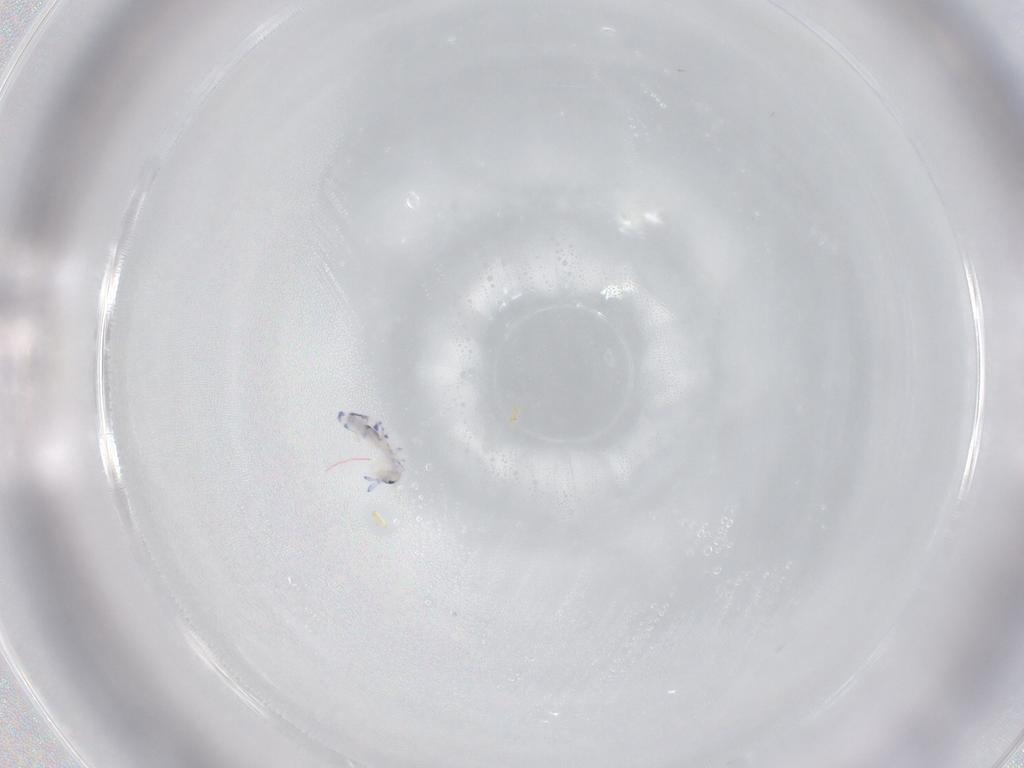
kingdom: Animalia
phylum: Arthropoda
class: Collembola
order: Entomobryomorpha
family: Entomobryidae
